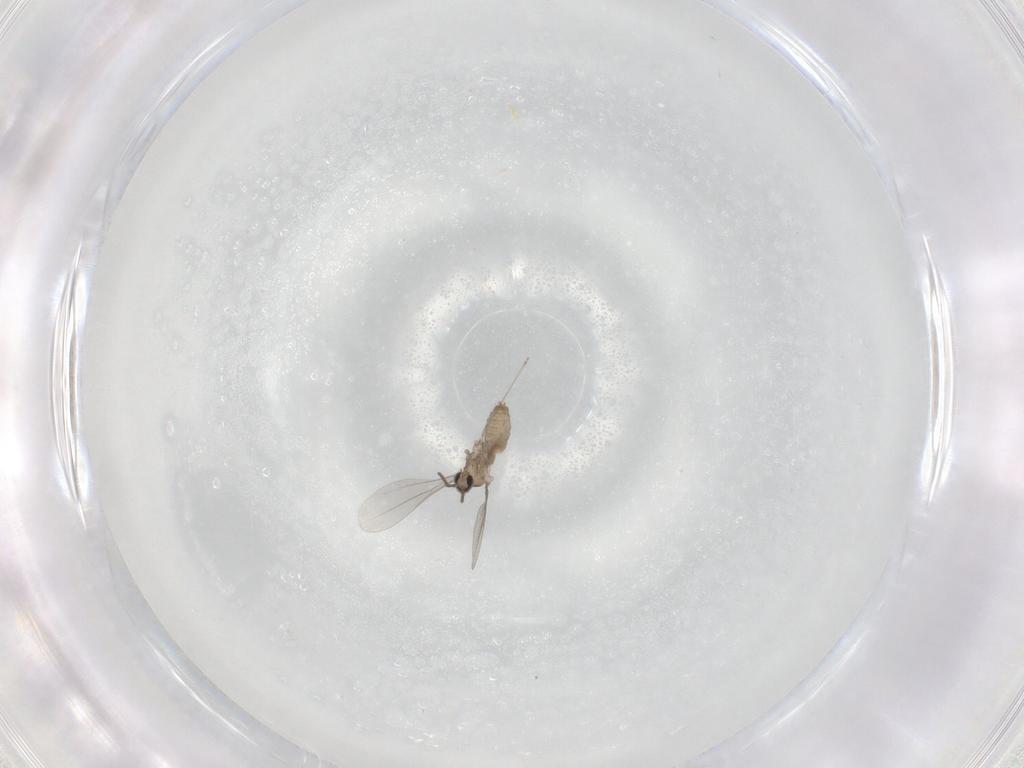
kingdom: Animalia
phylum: Arthropoda
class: Insecta
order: Diptera
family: Cecidomyiidae
